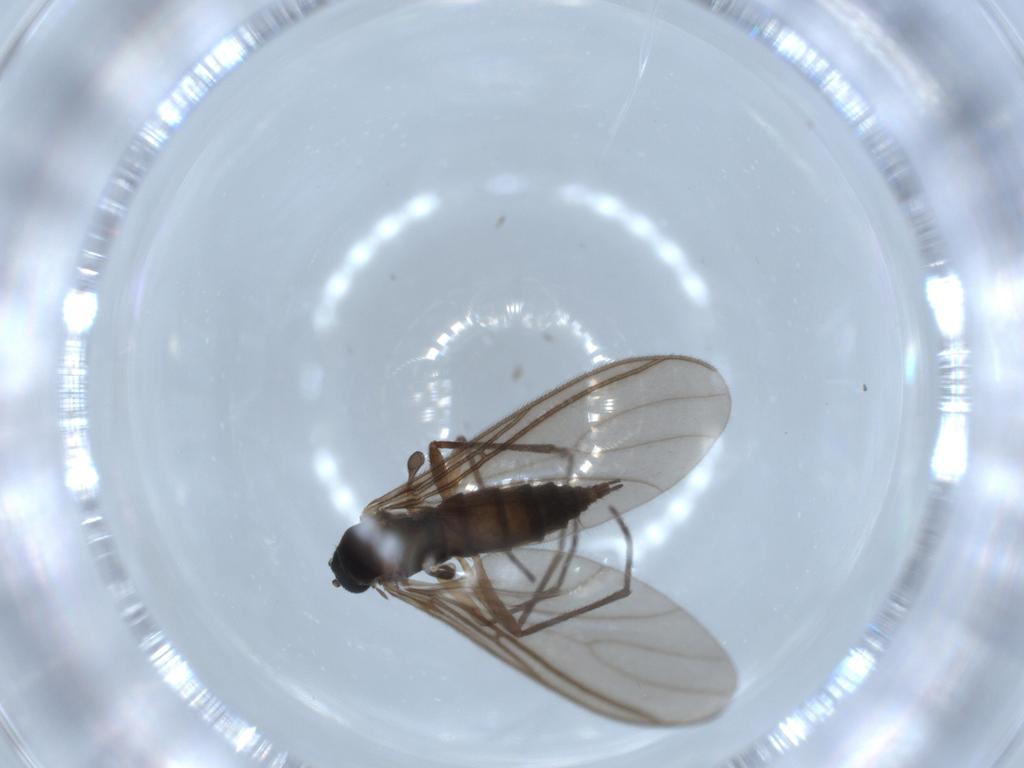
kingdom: Animalia
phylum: Arthropoda
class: Insecta
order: Diptera
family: Sciaridae
